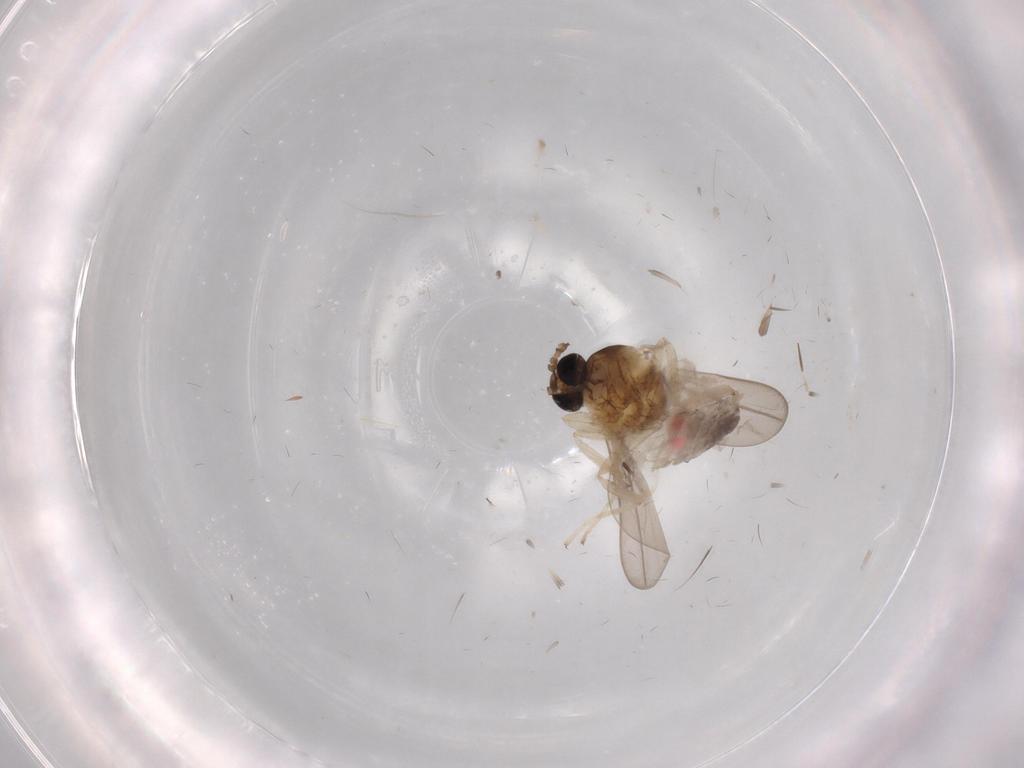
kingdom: Animalia
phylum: Arthropoda
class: Insecta
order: Diptera
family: Cecidomyiidae
